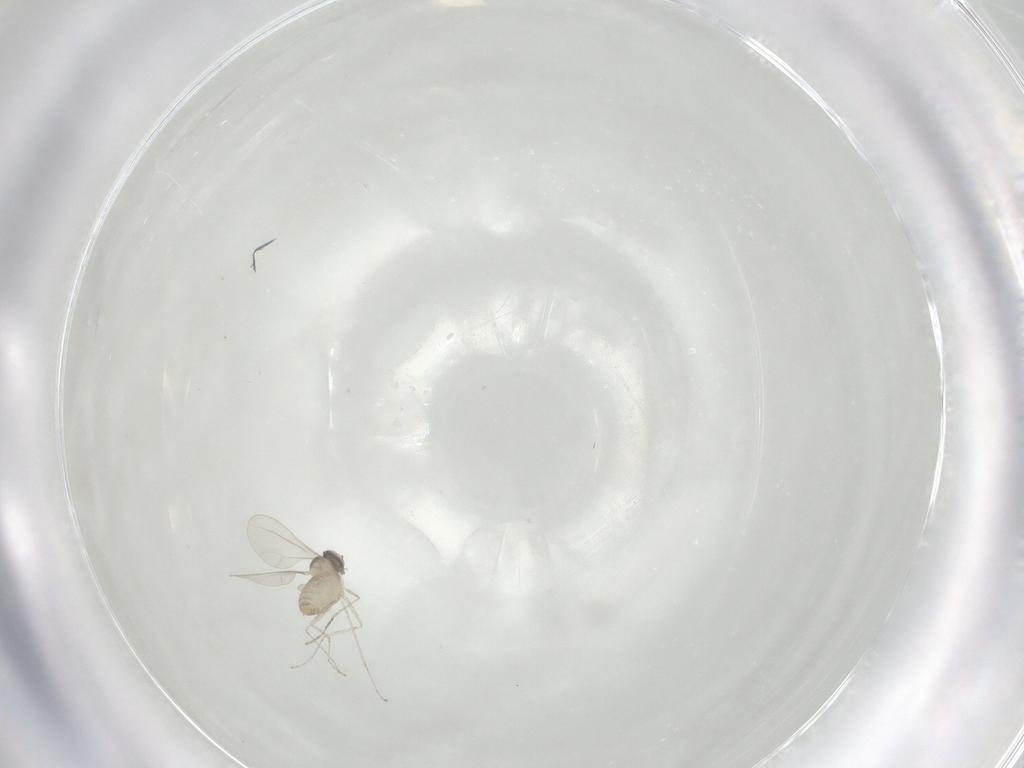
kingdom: Animalia
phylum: Arthropoda
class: Insecta
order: Diptera
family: Cecidomyiidae
